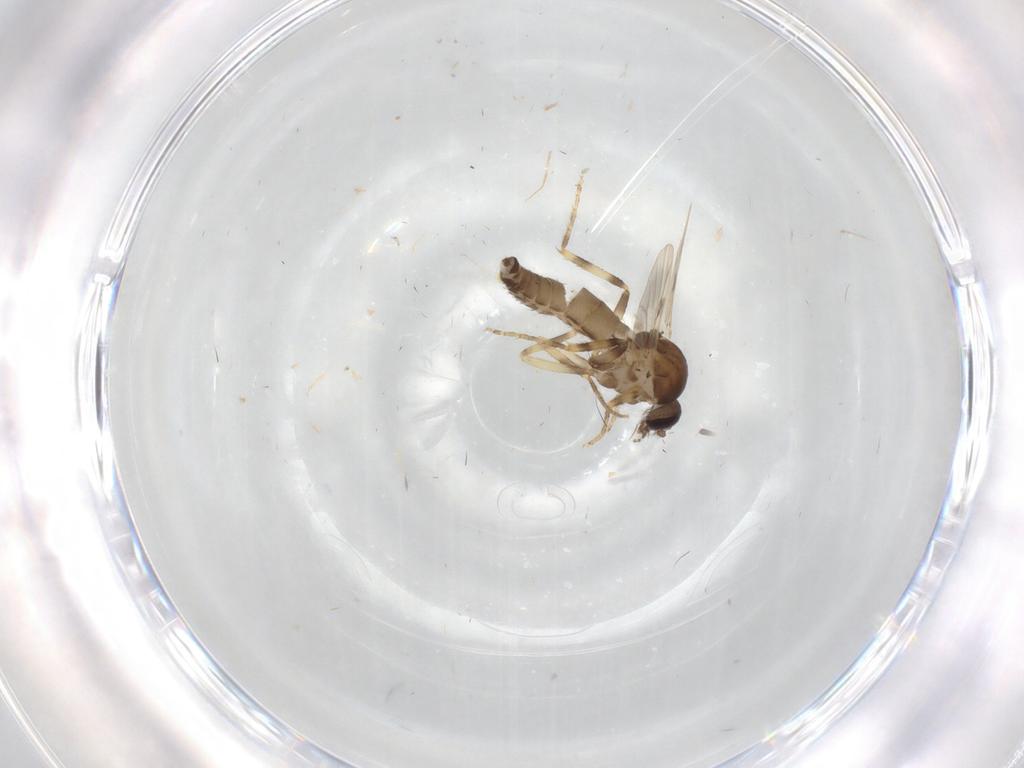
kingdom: Animalia
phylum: Arthropoda
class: Insecta
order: Diptera
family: Ceratopogonidae
